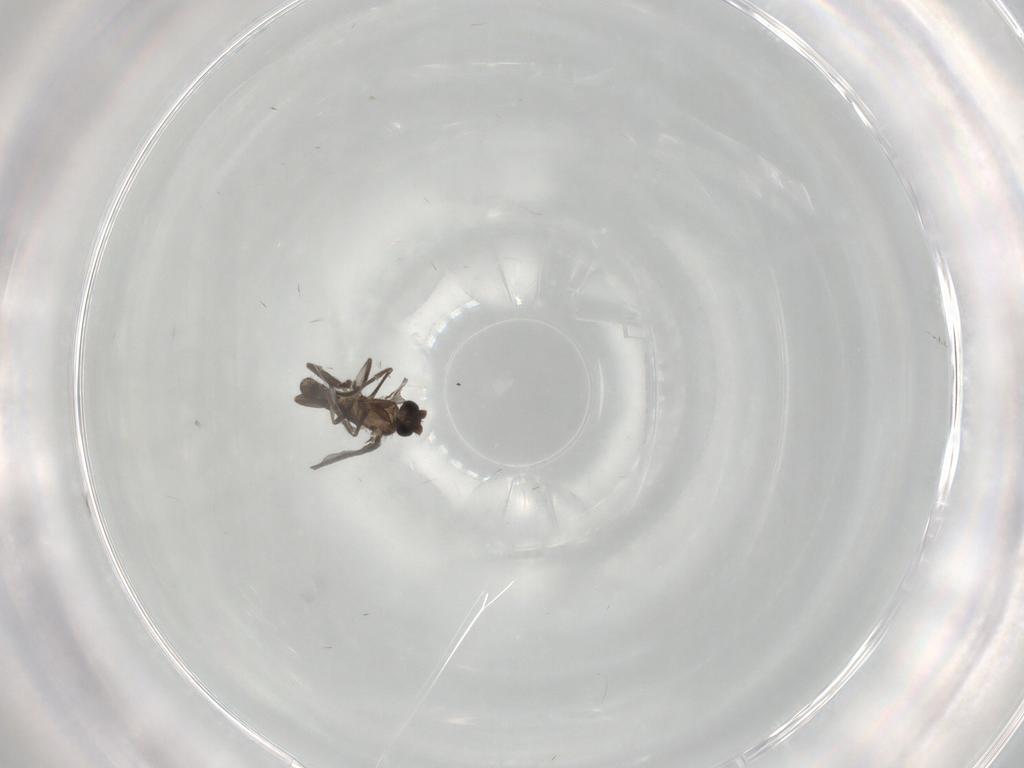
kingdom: Animalia
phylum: Arthropoda
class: Insecta
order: Diptera
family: Phoridae
